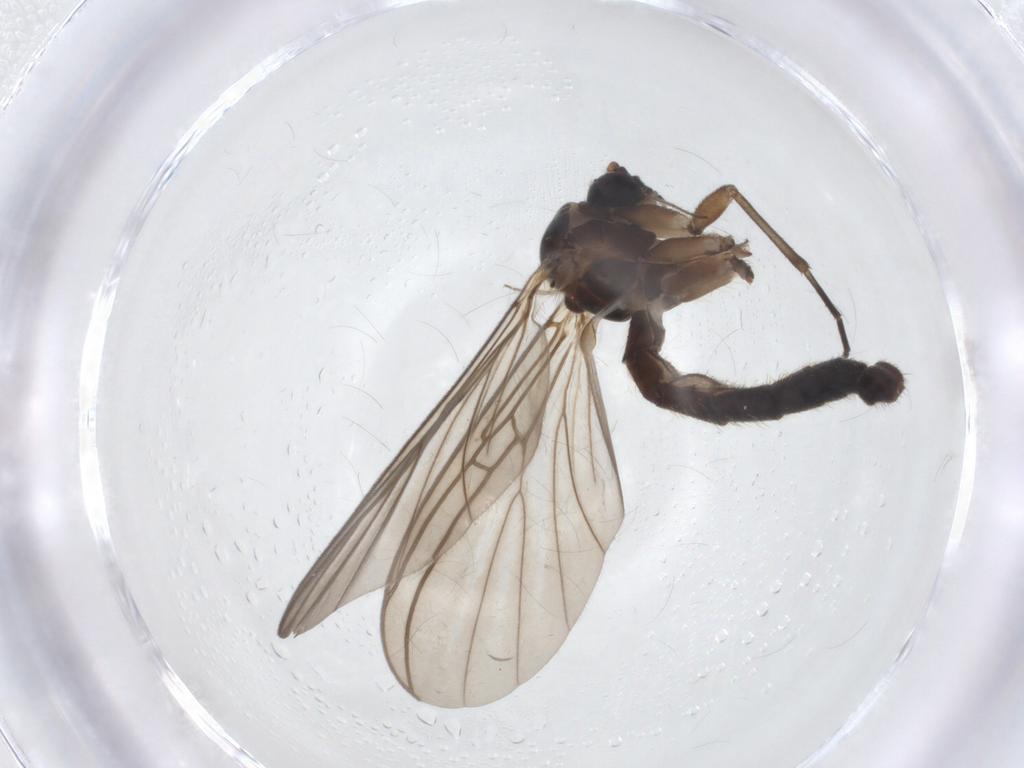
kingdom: Animalia
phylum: Arthropoda
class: Insecta
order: Diptera
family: Mycetophilidae
